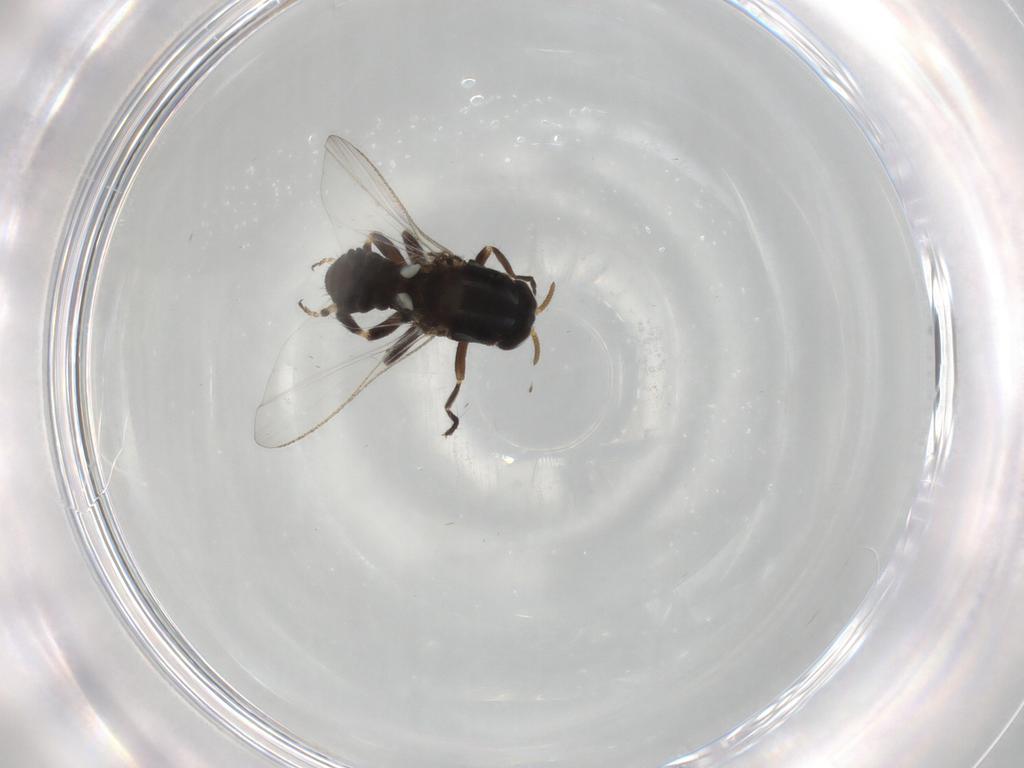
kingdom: Animalia
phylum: Arthropoda
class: Insecta
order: Diptera
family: Simuliidae
